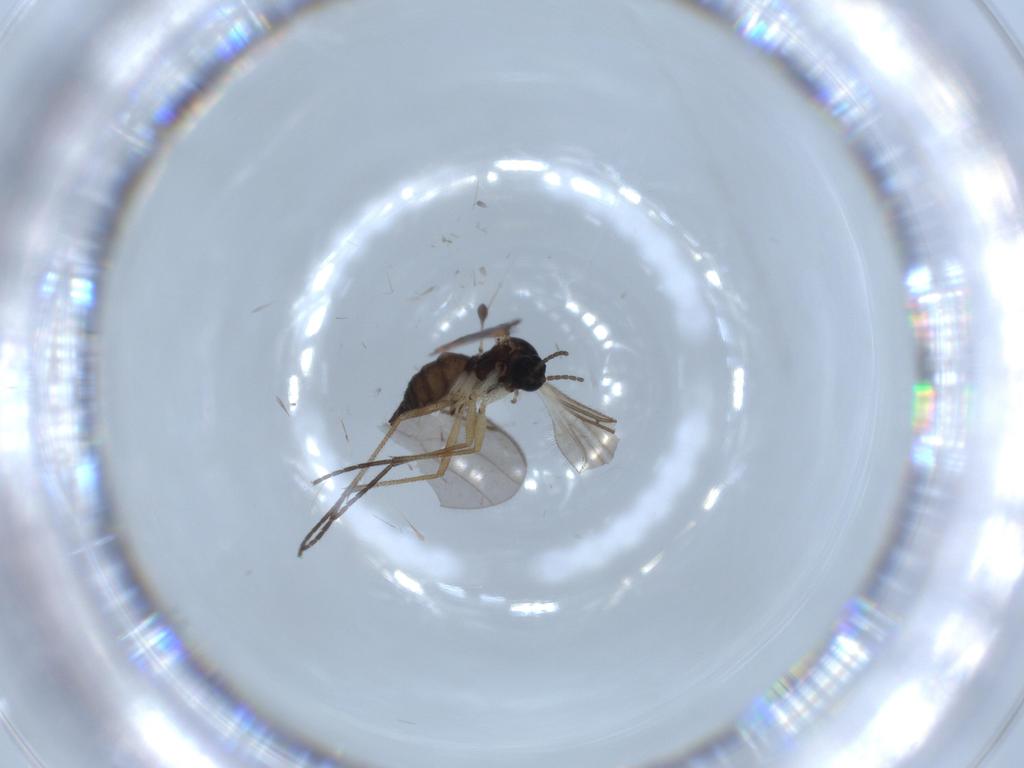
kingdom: Animalia
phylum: Arthropoda
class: Insecta
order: Diptera
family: Sciaridae
